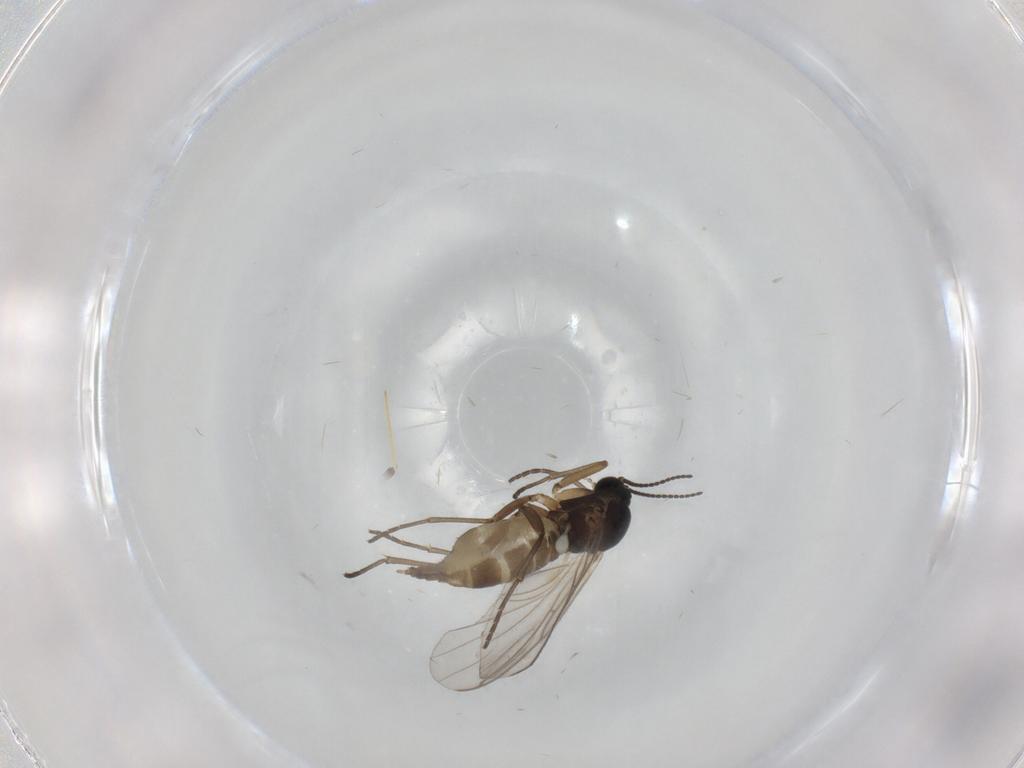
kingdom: Animalia
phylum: Arthropoda
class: Insecta
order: Diptera
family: Sciaridae
